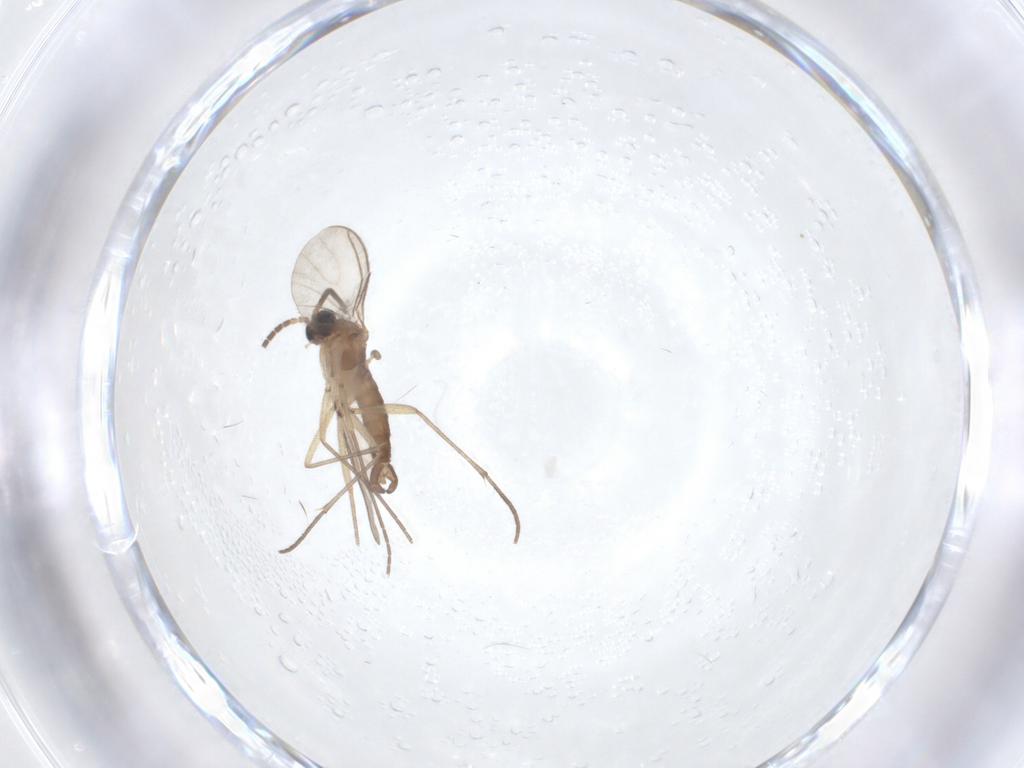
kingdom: Animalia
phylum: Arthropoda
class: Insecta
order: Diptera
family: Sciaridae
